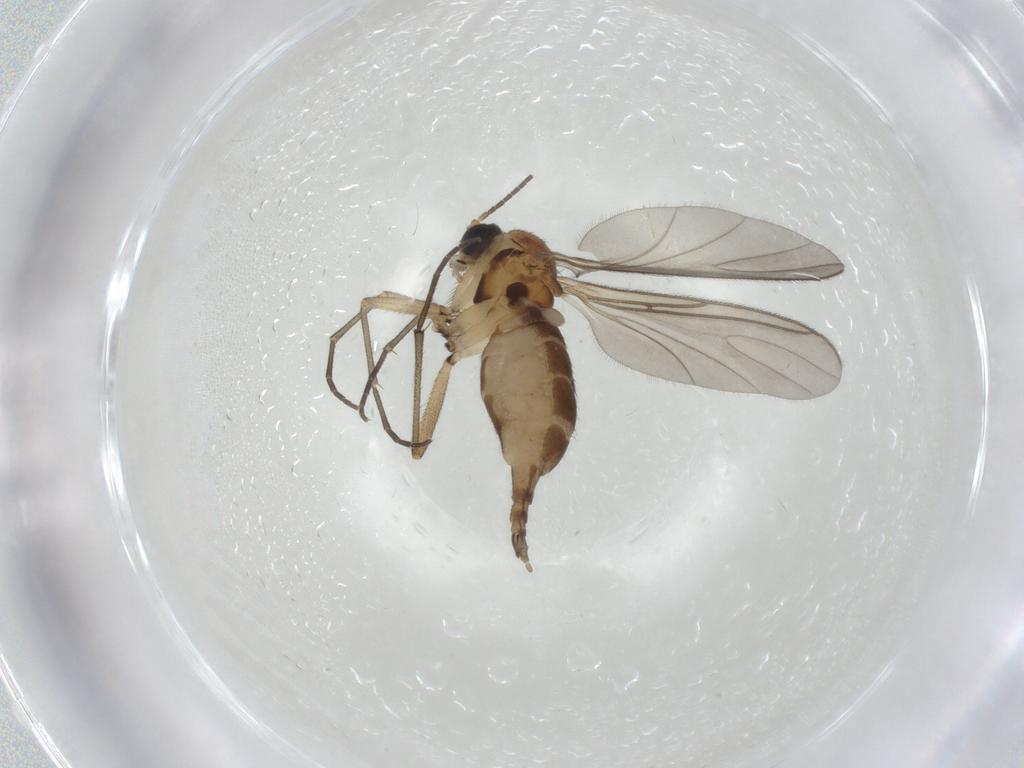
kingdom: Animalia
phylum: Arthropoda
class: Insecta
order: Diptera
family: Sciaridae
